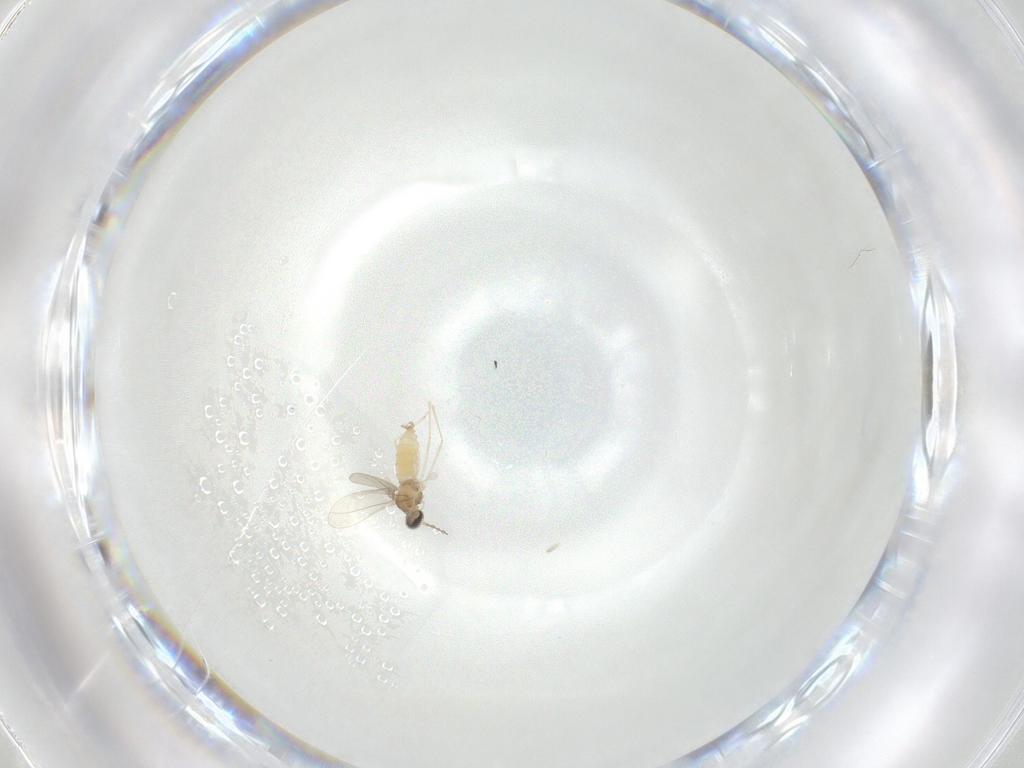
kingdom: Animalia
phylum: Arthropoda
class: Insecta
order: Diptera
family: Cecidomyiidae
